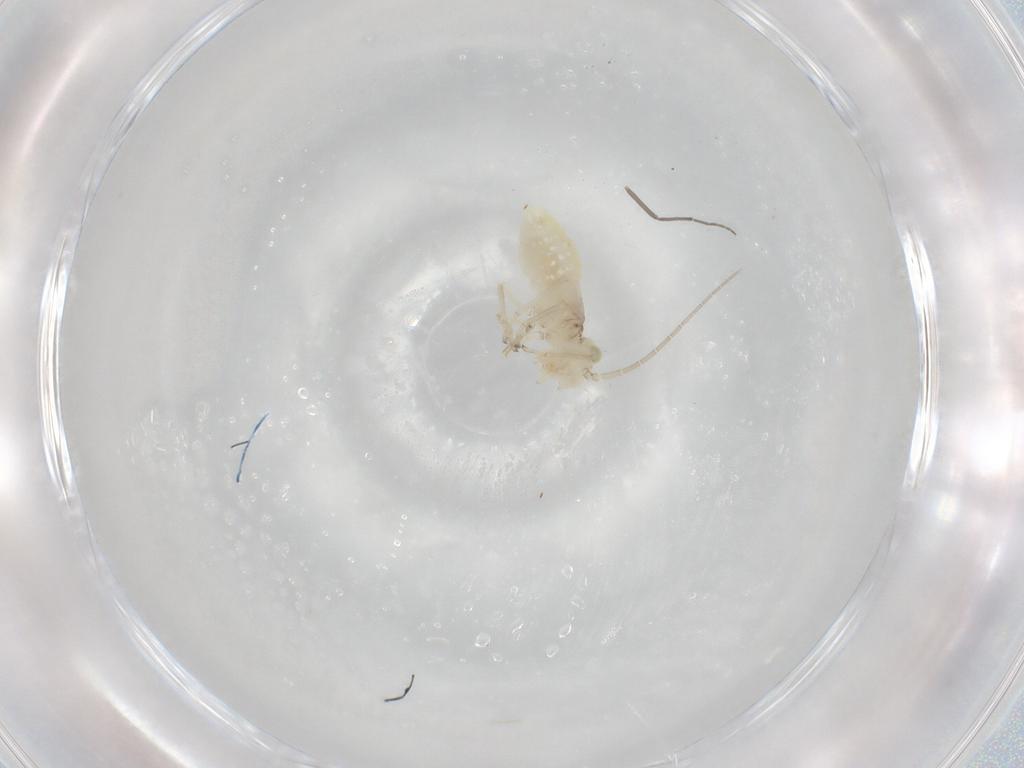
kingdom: Animalia
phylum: Arthropoda
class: Insecta
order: Psocodea
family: Caeciliusidae
